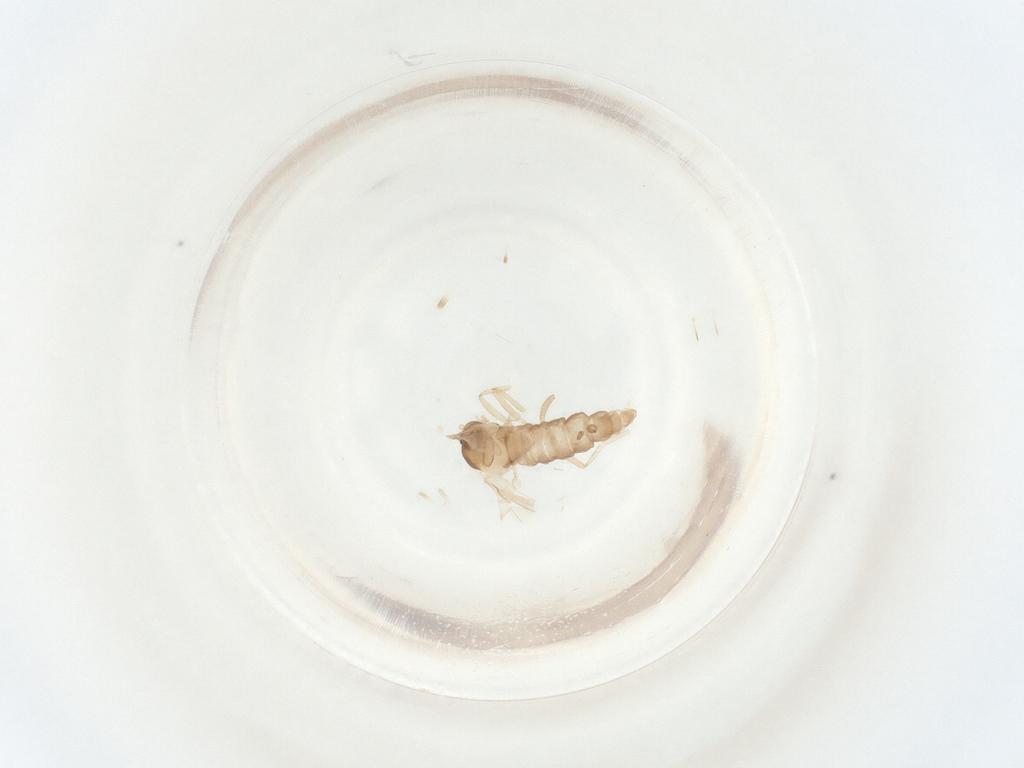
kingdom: Animalia
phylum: Arthropoda
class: Insecta
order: Diptera
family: Cecidomyiidae
